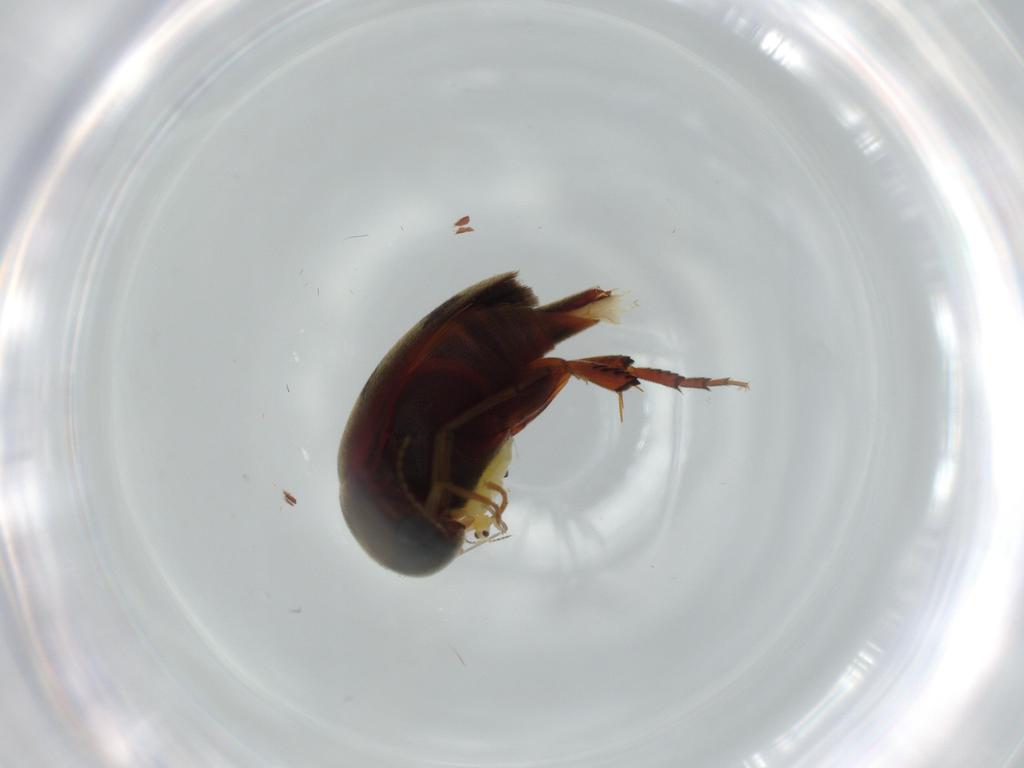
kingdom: Animalia
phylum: Arthropoda
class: Insecta
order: Coleoptera
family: Mordellidae
